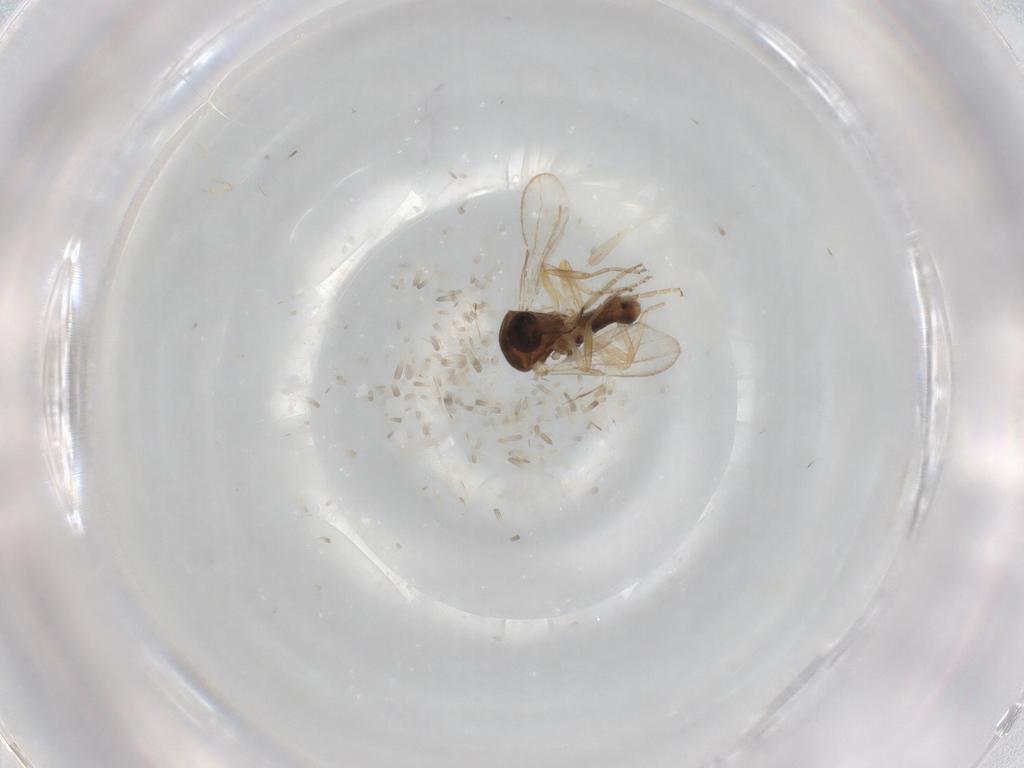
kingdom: Animalia
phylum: Arthropoda
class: Insecta
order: Diptera
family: Ceratopogonidae
